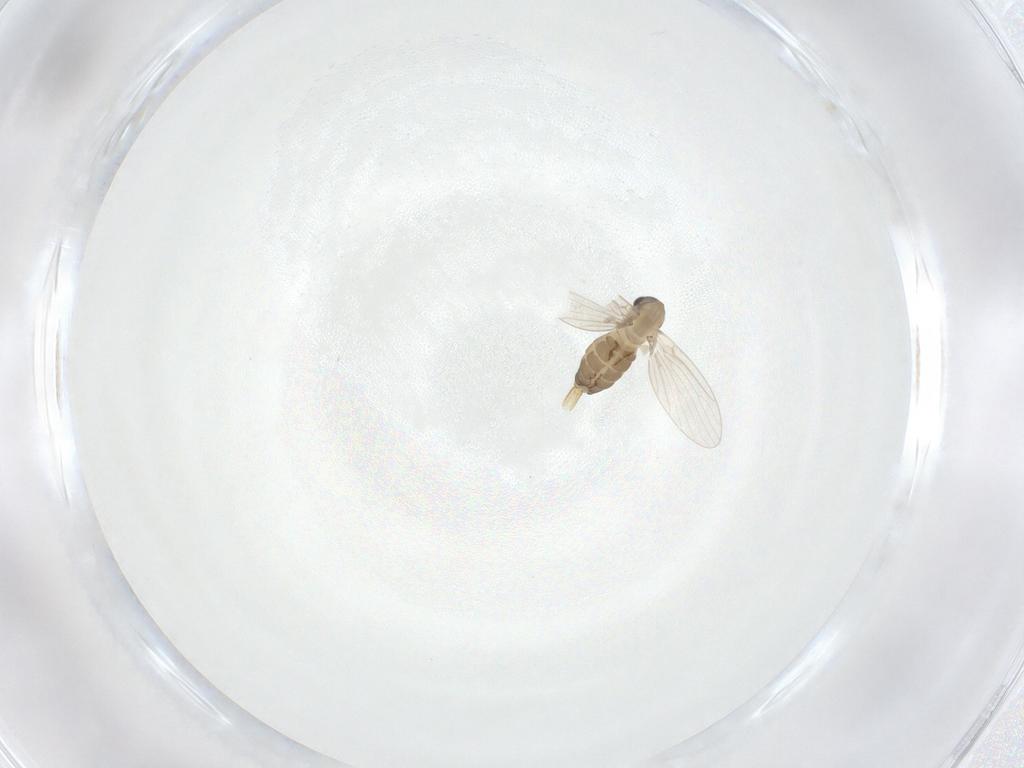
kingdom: Animalia
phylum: Arthropoda
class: Insecta
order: Diptera
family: Psychodidae
